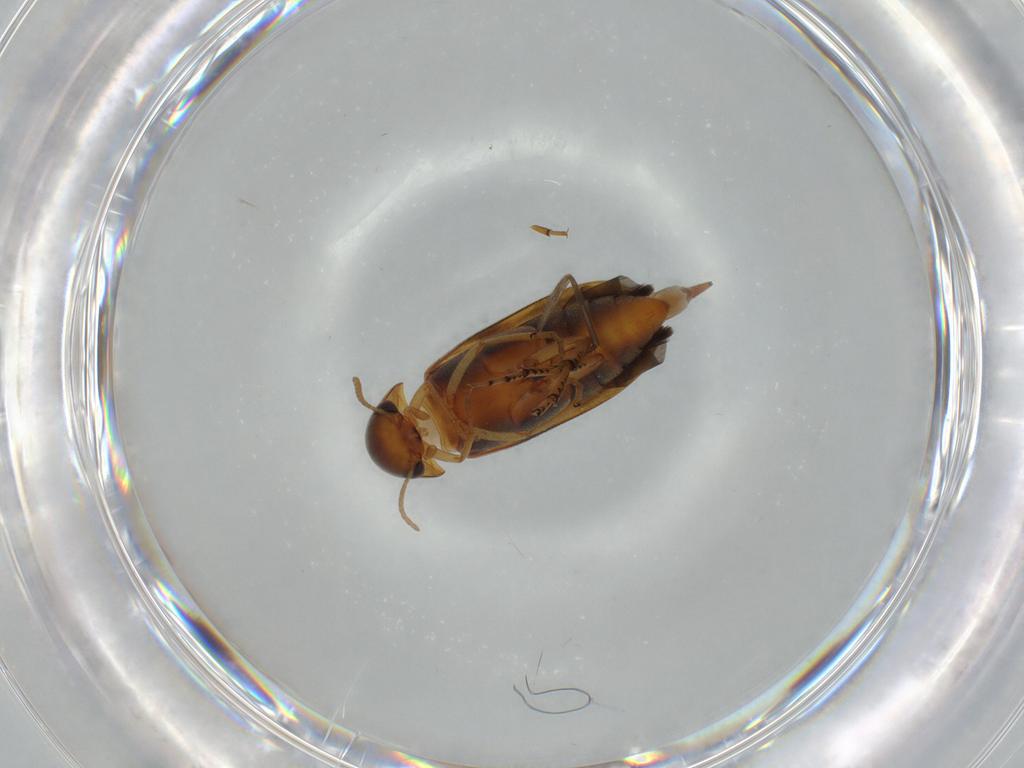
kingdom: Animalia
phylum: Arthropoda
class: Insecta
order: Coleoptera
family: Mordellidae
